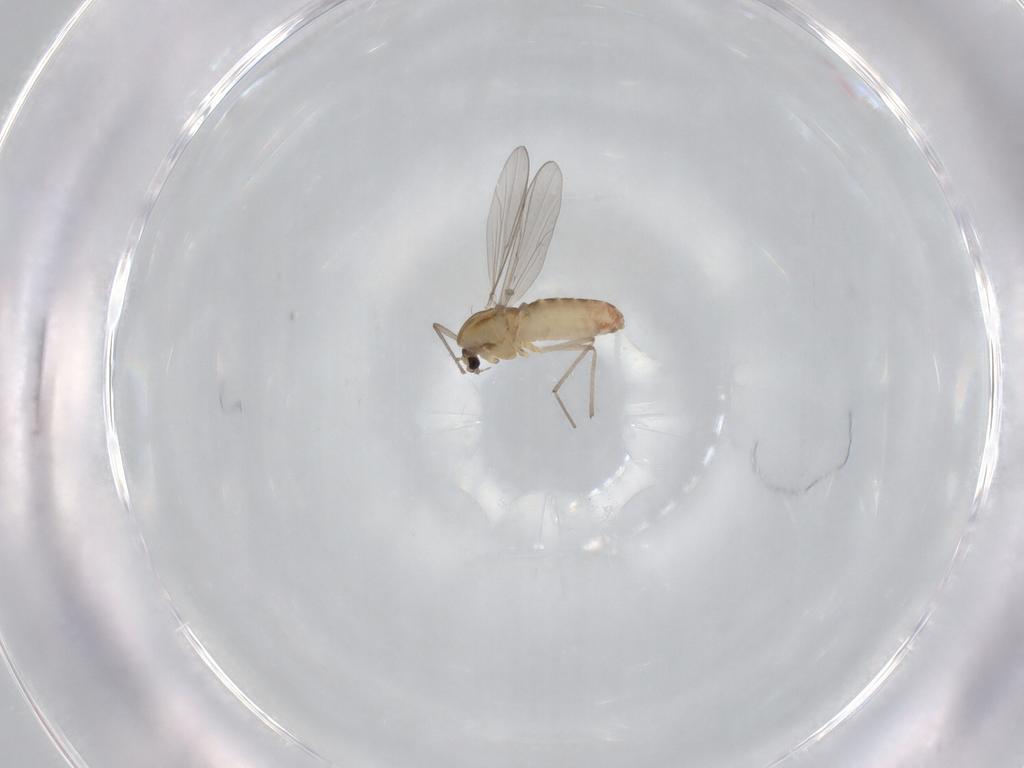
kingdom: Animalia
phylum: Arthropoda
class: Insecta
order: Diptera
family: Chironomidae
